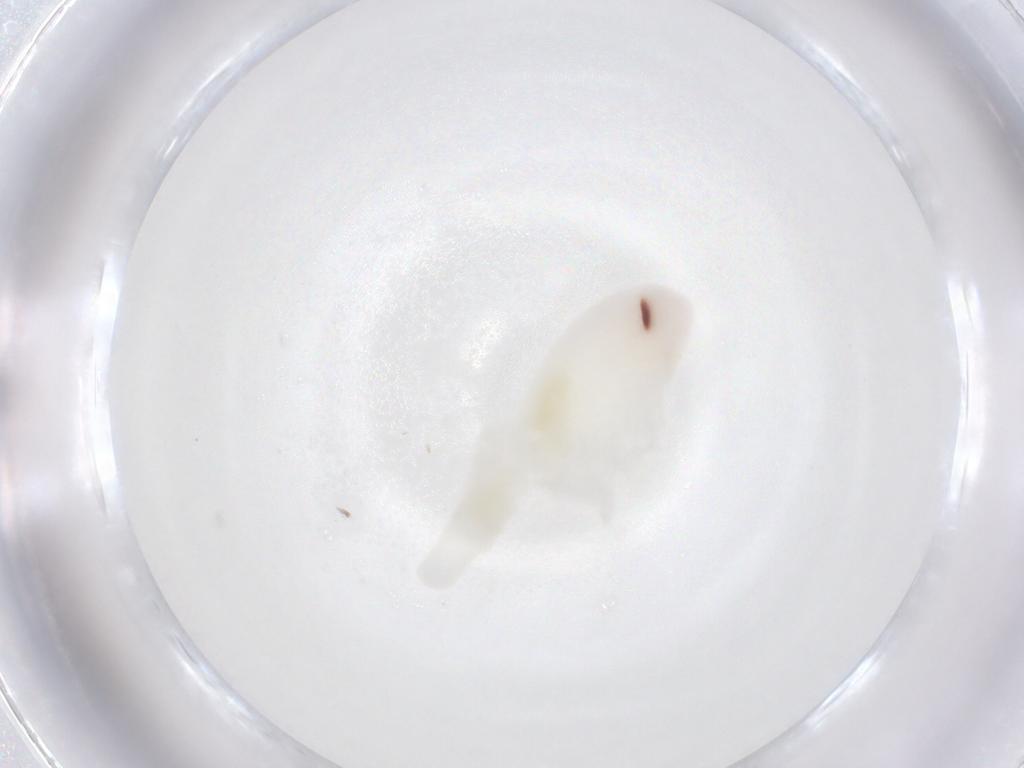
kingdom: Animalia
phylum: Arthropoda
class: Insecta
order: Blattodea
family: Ectobiidae
